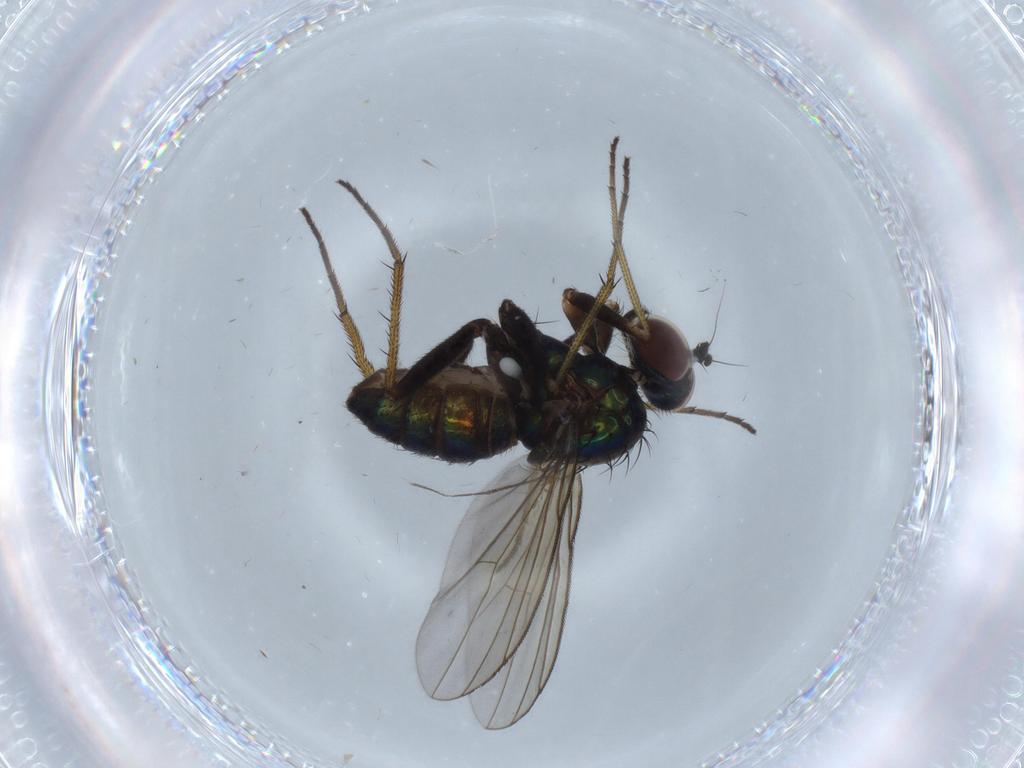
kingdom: Animalia
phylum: Arthropoda
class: Insecta
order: Diptera
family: Dolichopodidae
